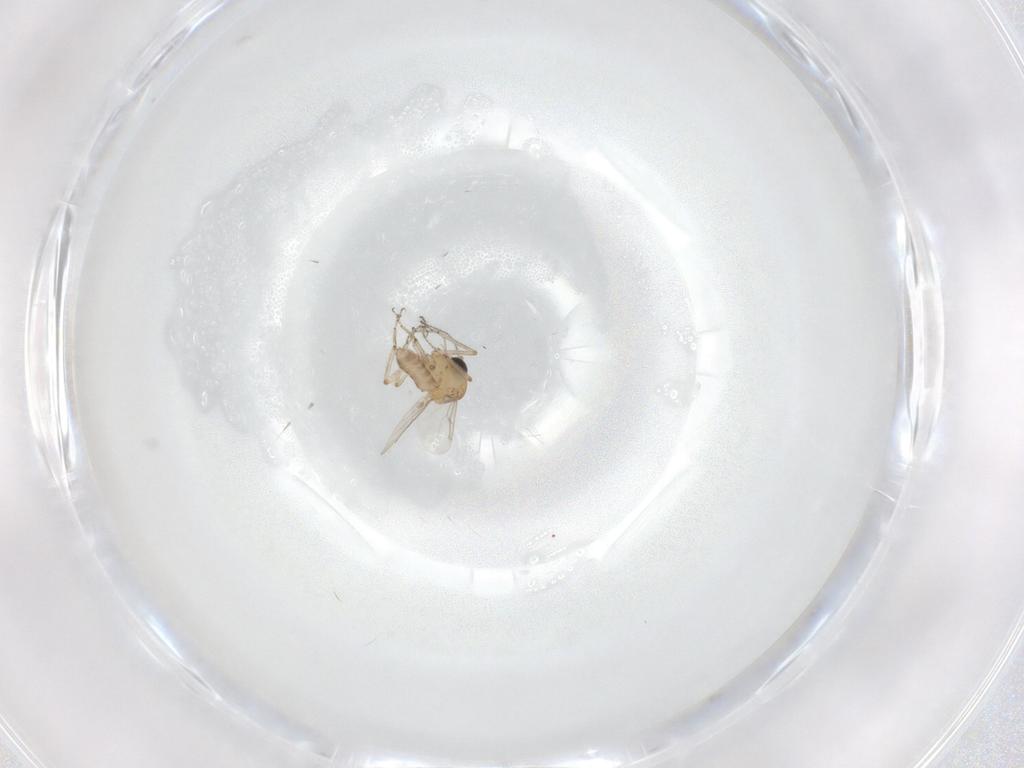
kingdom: Animalia
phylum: Arthropoda
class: Insecta
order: Diptera
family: Ceratopogonidae
